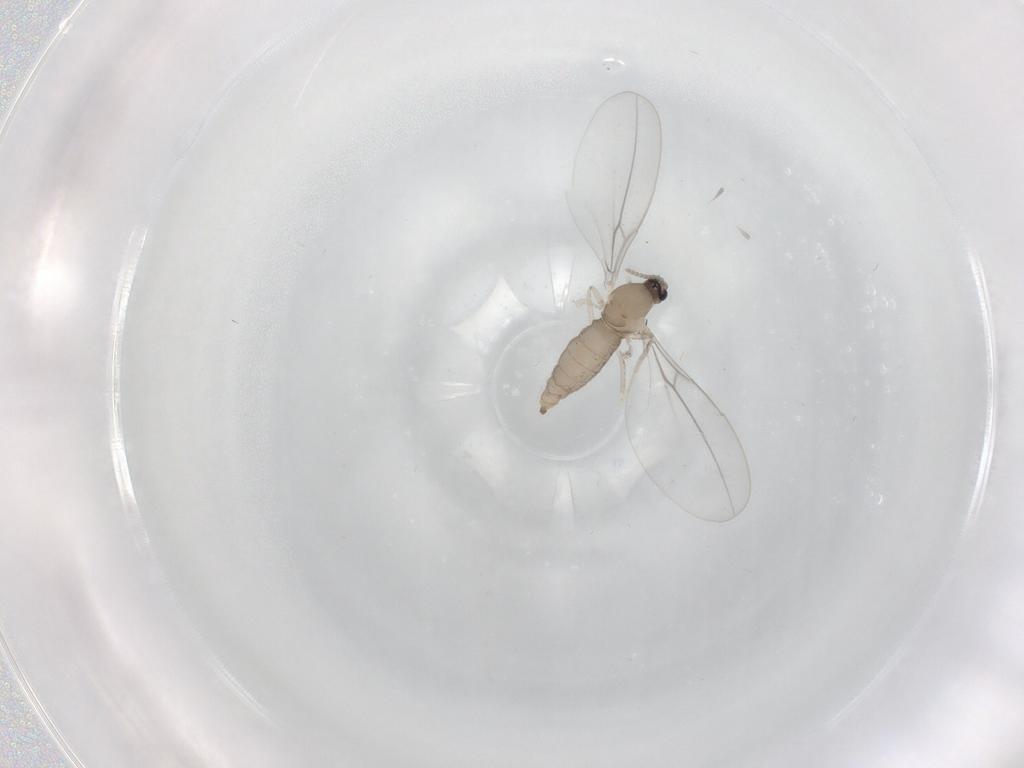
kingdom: Animalia
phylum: Arthropoda
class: Insecta
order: Diptera
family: Cecidomyiidae
